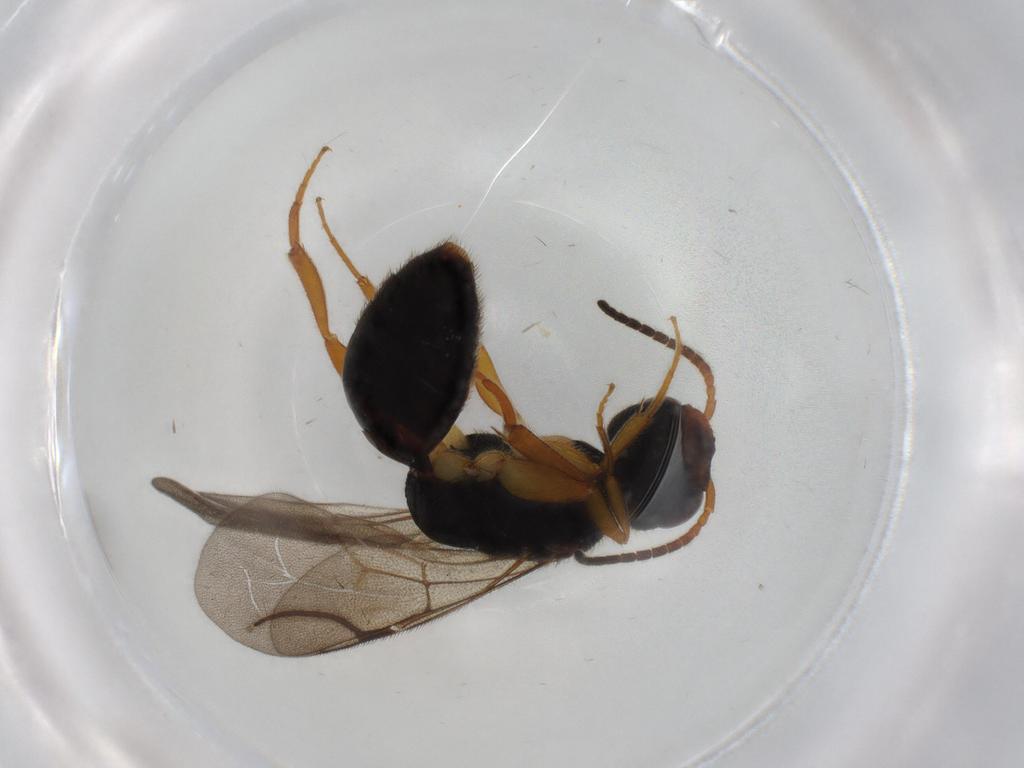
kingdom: Animalia
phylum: Arthropoda
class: Insecta
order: Hymenoptera
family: Bethylidae
